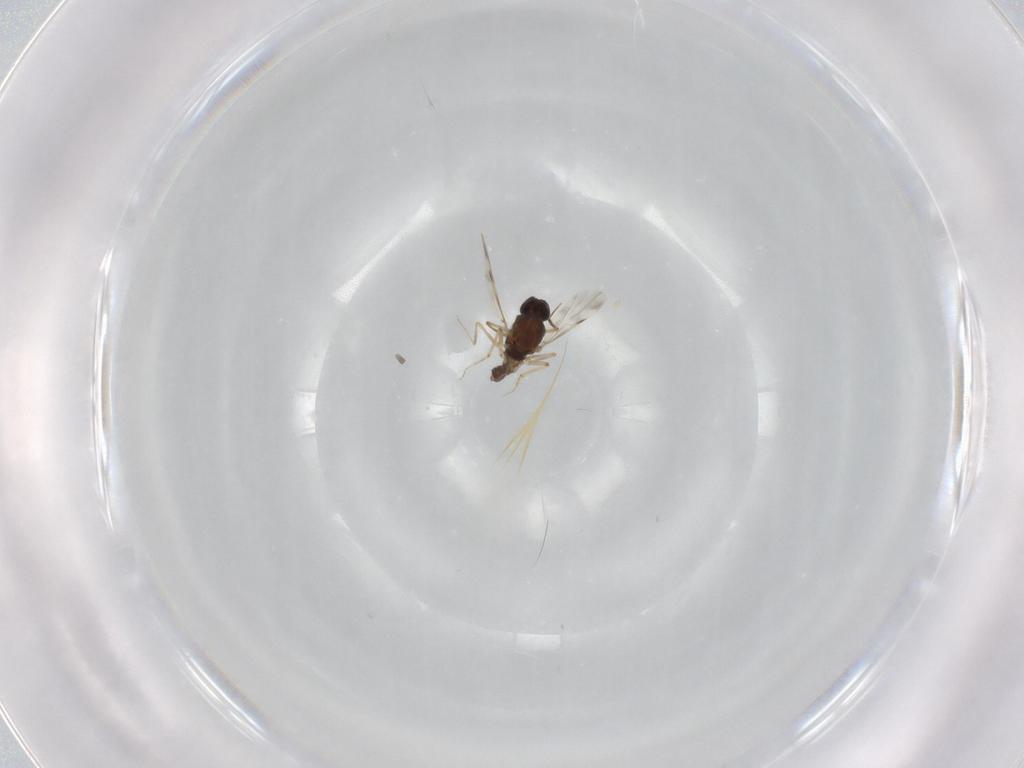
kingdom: Animalia
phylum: Arthropoda
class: Insecta
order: Diptera
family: Ceratopogonidae
